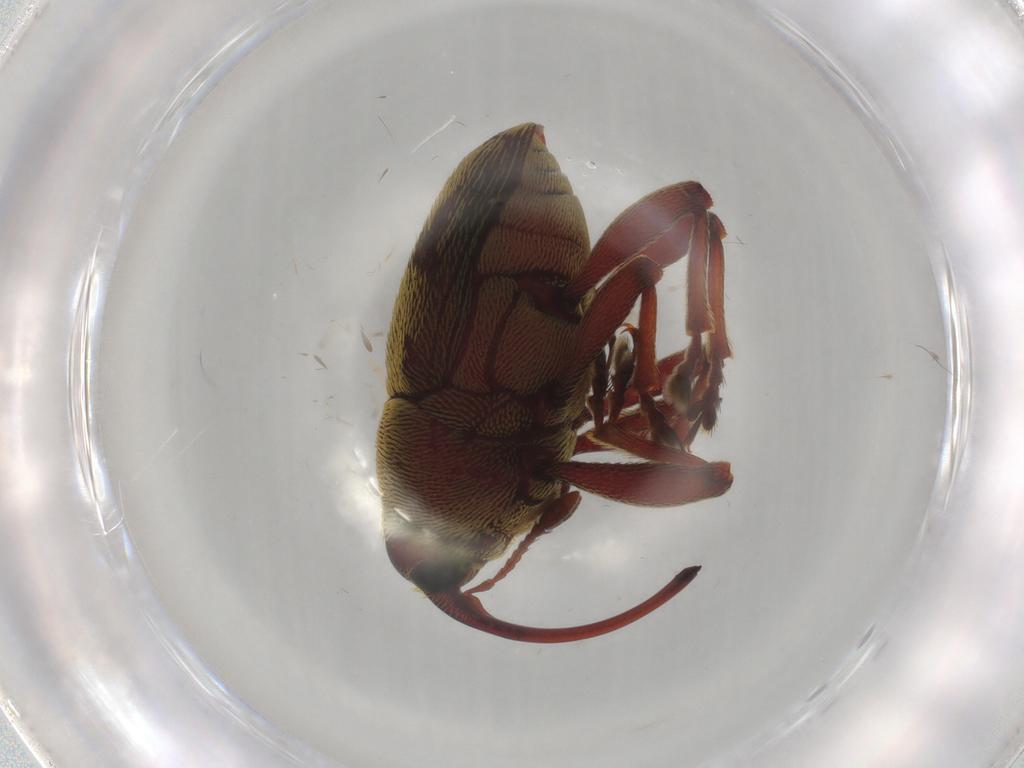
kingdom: Animalia
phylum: Arthropoda
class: Insecta
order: Coleoptera
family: Curculionidae
